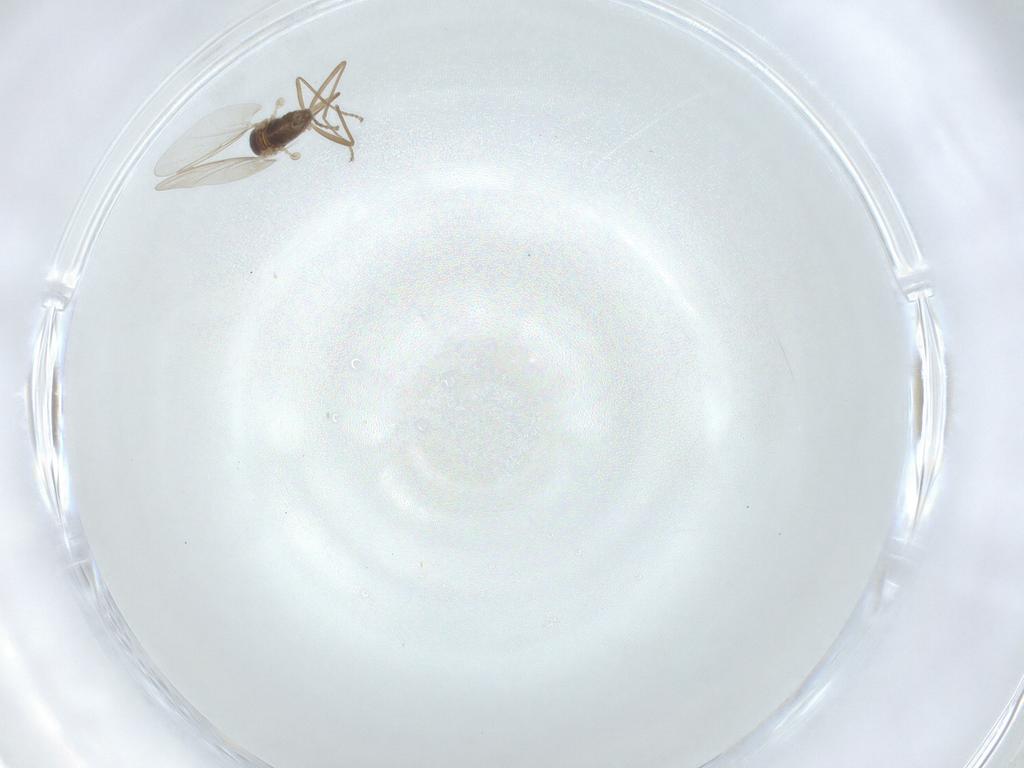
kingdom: Animalia
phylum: Arthropoda
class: Insecta
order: Diptera
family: Cecidomyiidae
